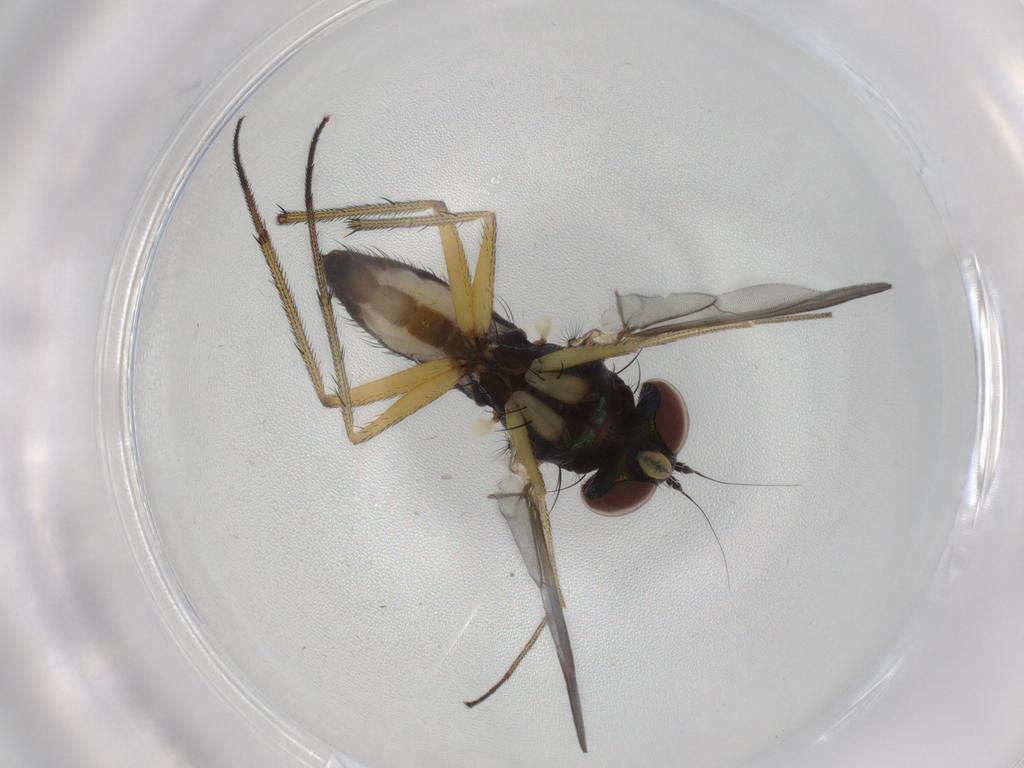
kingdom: Animalia
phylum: Arthropoda
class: Insecta
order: Diptera
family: Dolichopodidae
